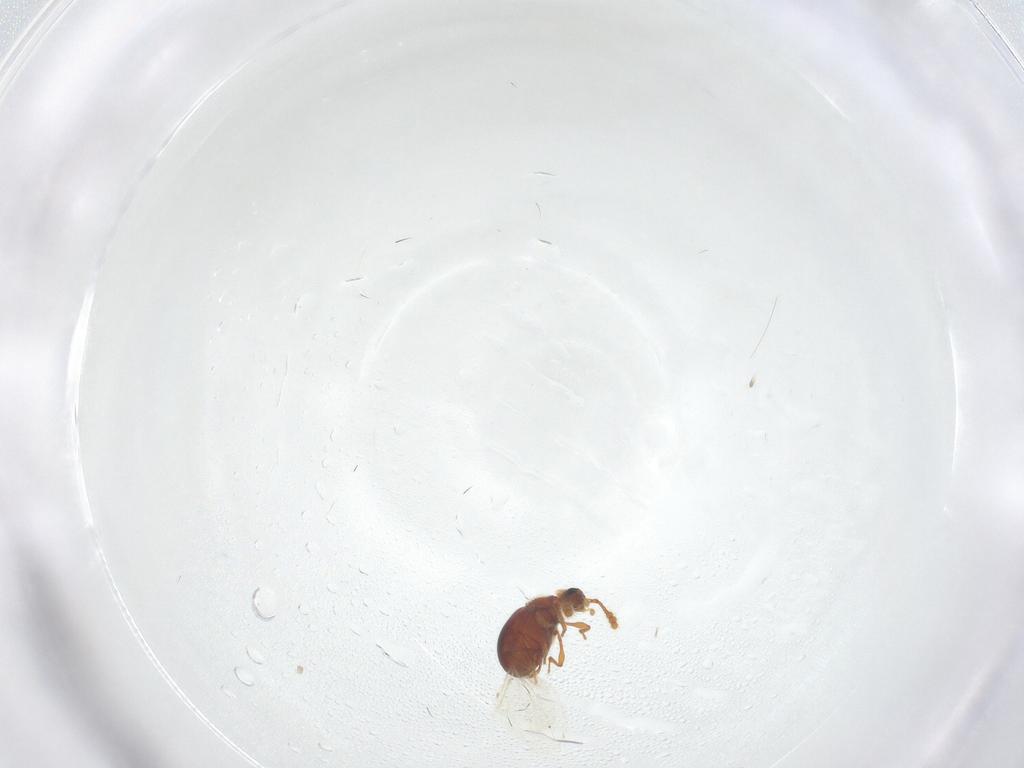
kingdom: Animalia
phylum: Arthropoda
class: Insecta
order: Coleoptera
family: Staphylinidae
